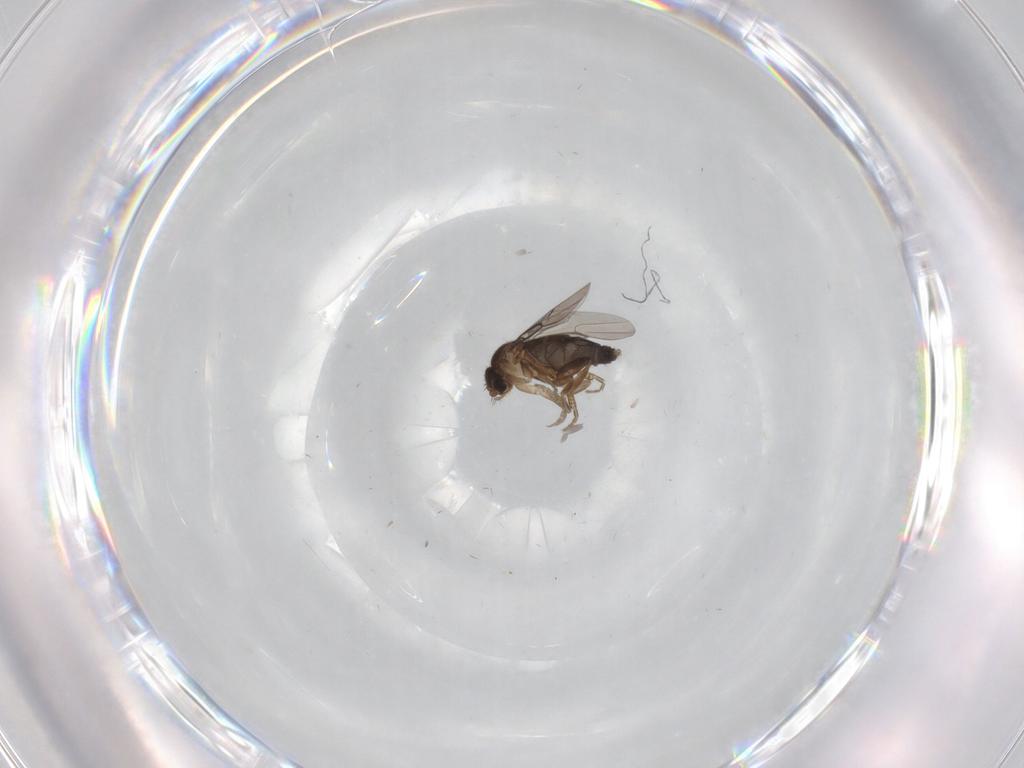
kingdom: Animalia
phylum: Arthropoda
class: Insecta
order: Diptera
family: Phoridae
